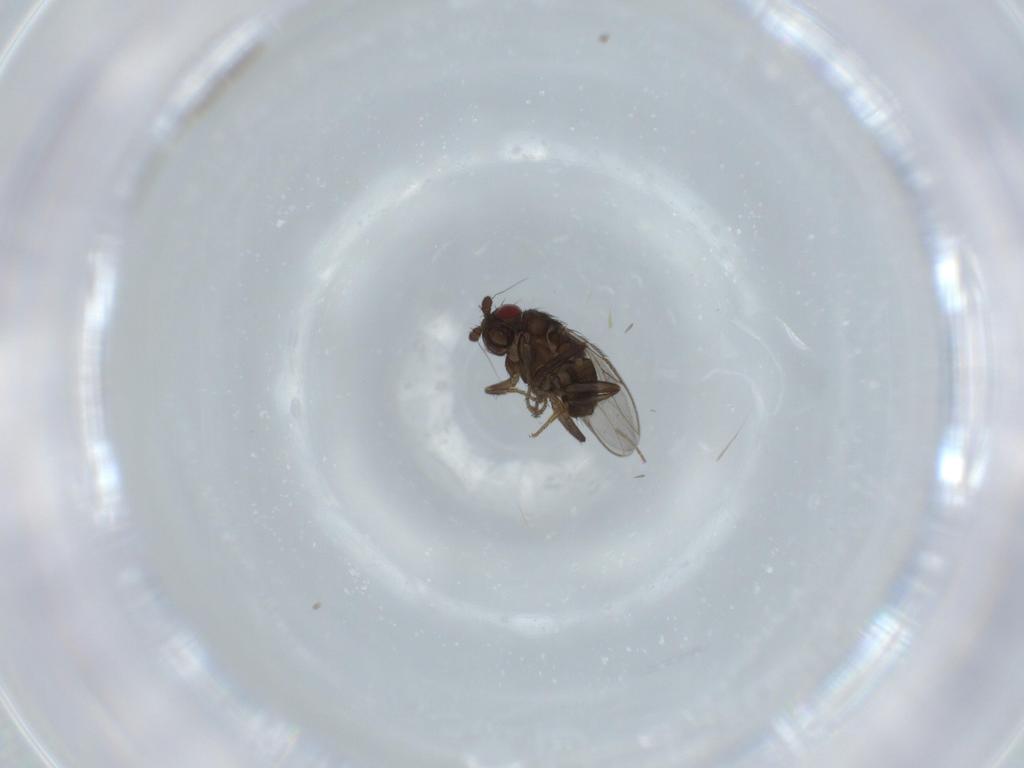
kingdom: Animalia
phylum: Arthropoda
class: Insecta
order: Diptera
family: Sphaeroceridae
